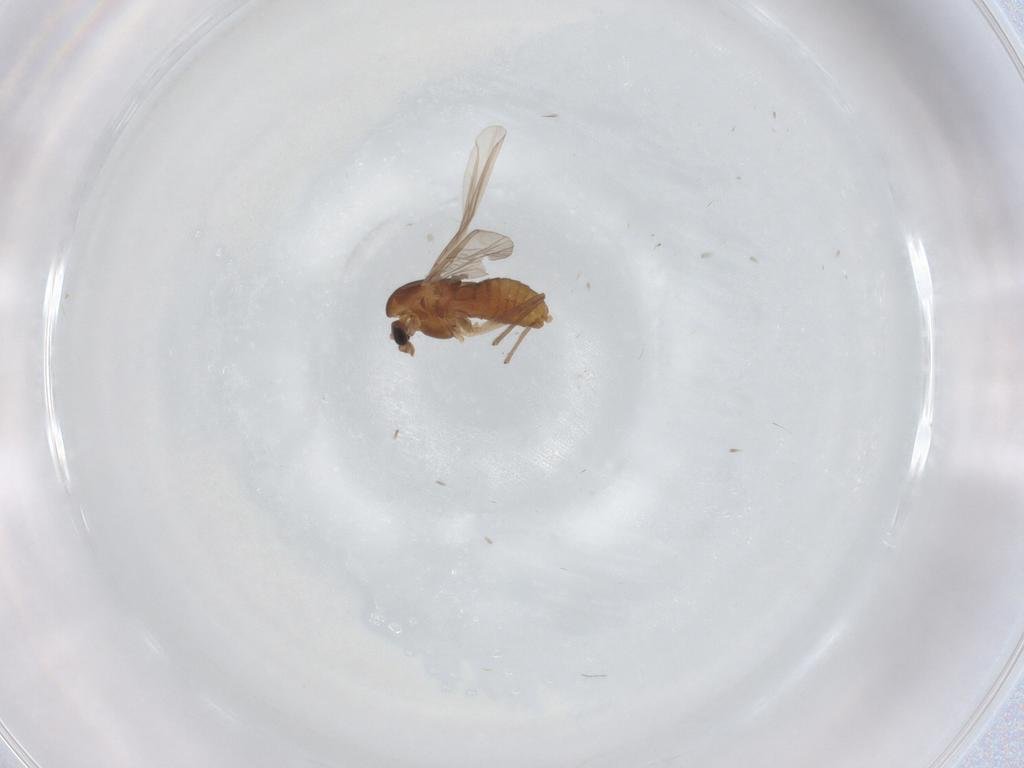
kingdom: Animalia
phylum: Arthropoda
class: Insecta
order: Diptera
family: Ceratopogonidae
